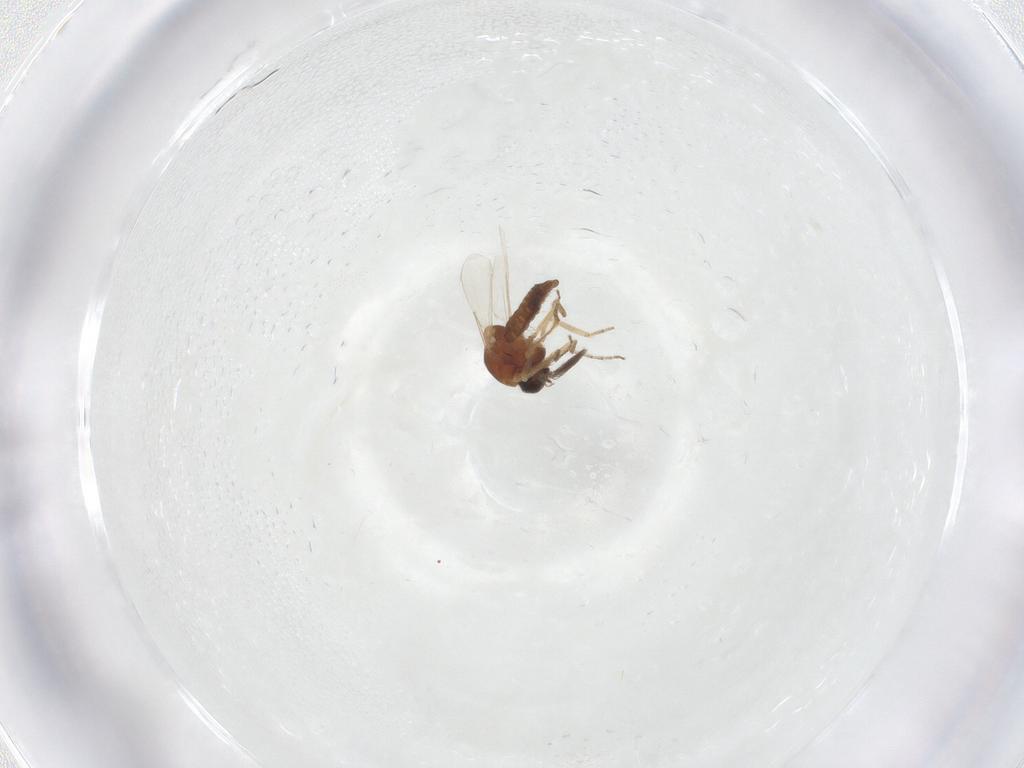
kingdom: Animalia
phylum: Arthropoda
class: Insecta
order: Diptera
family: Ceratopogonidae
